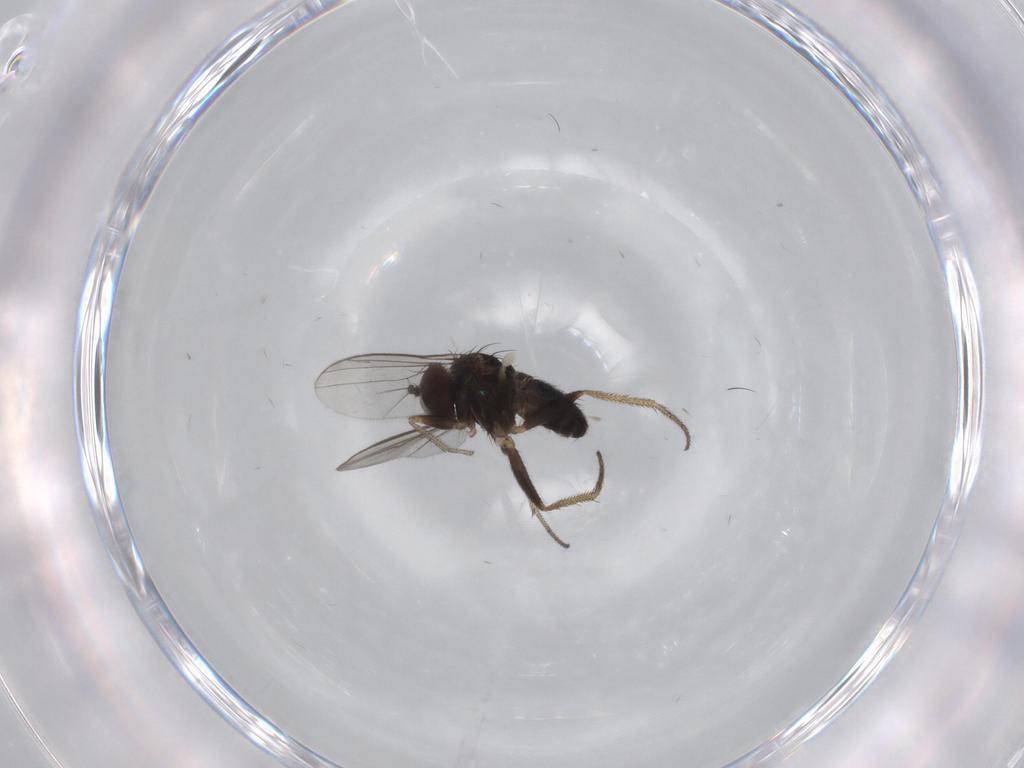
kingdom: Animalia
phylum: Arthropoda
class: Insecta
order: Diptera
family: Dolichopodidae
